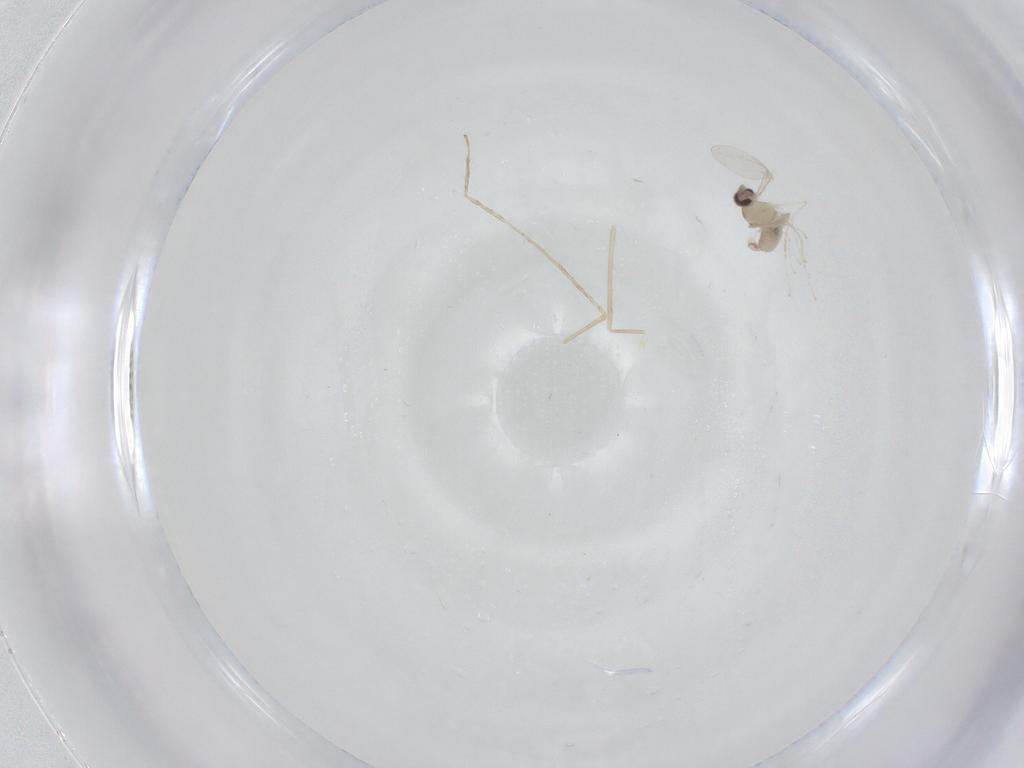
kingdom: Animalia
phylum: Arthropoda
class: Insecta
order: Diptera
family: Cecidomyiidae
